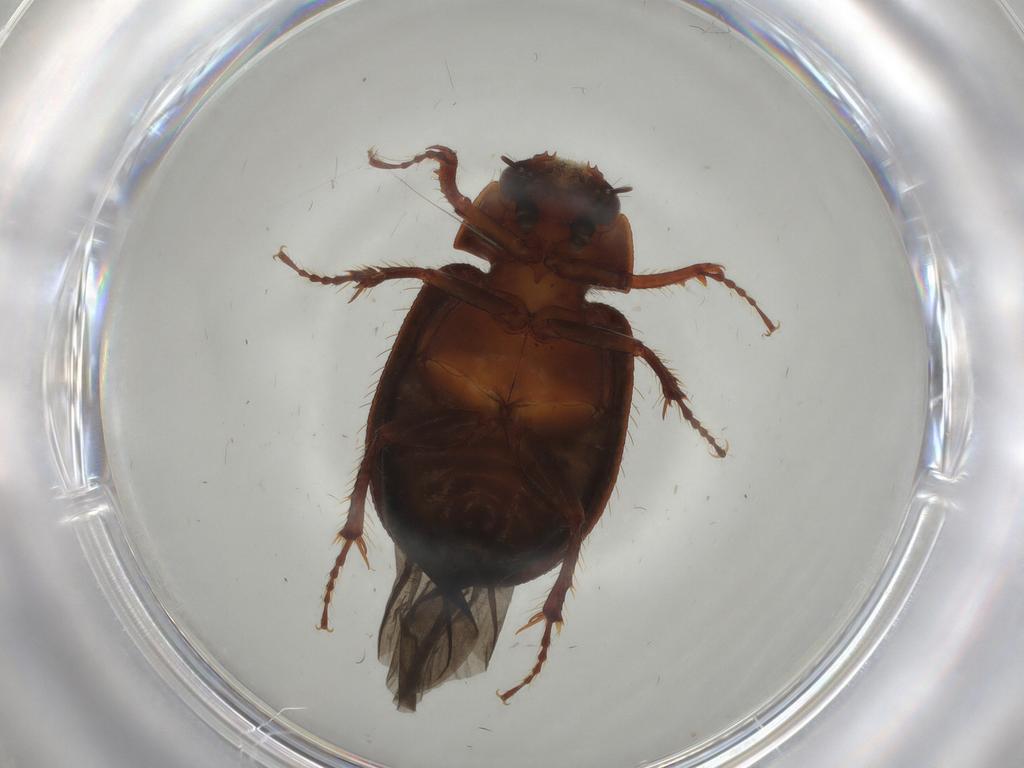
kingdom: Animalia
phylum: Arthropoda
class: Insecta
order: Coleoptera
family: Hybosoridae
